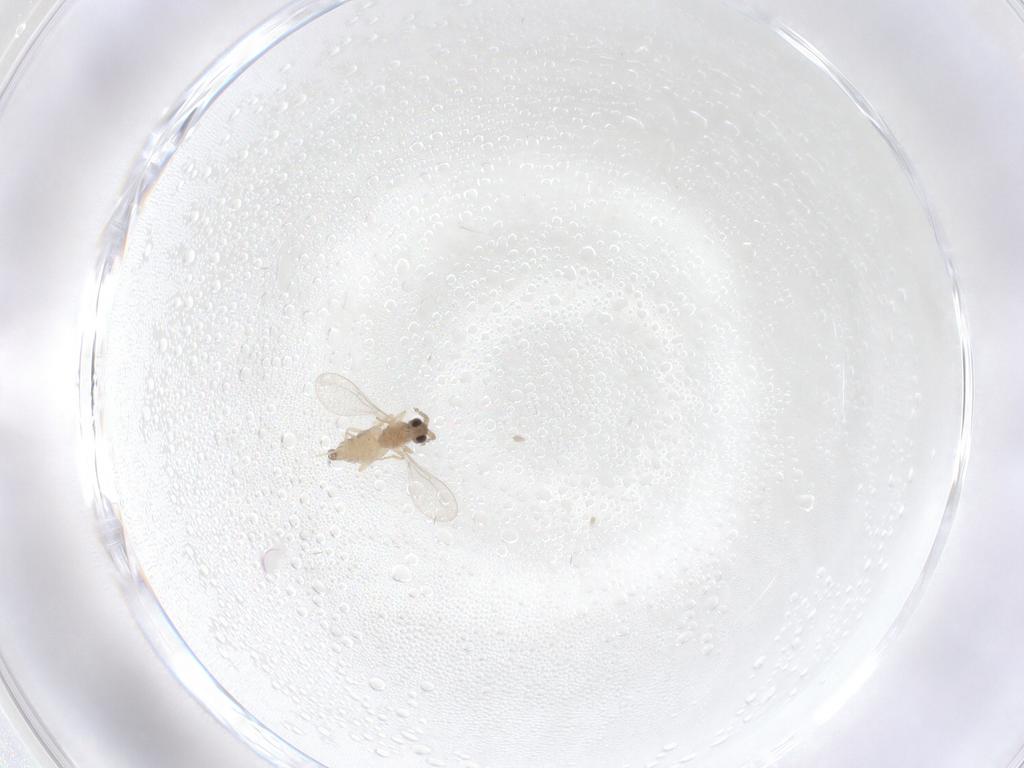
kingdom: Animalia
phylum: Arthropoda
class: Insecta
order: Diptera
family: Cecidomyiidae
